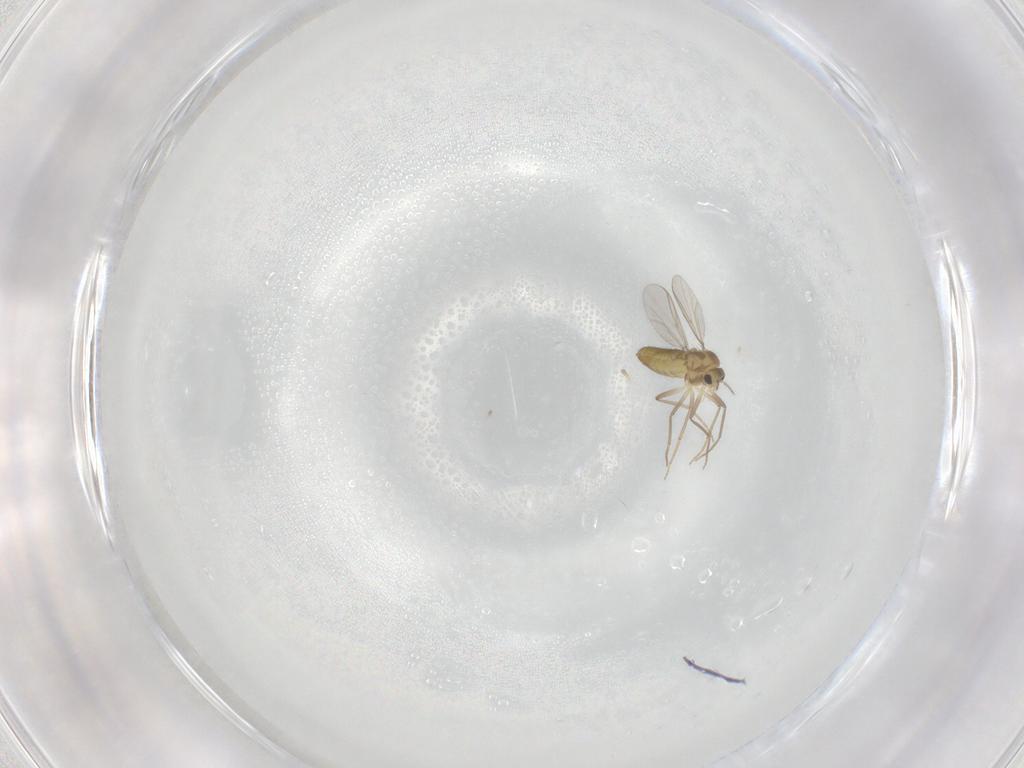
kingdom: Animalia
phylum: Arthropoda
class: Insecta
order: Diptera
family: Chironomidae
